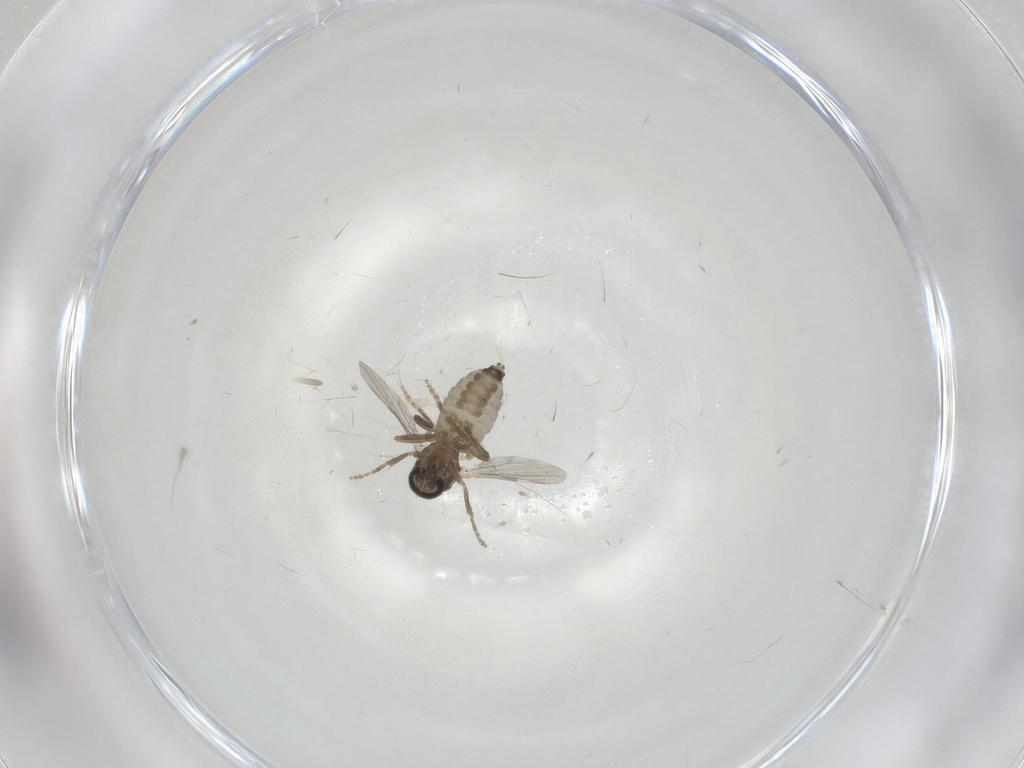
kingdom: Animalia
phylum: Arthropoda
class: Insecta
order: Diptera
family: Ceratopogonidae
